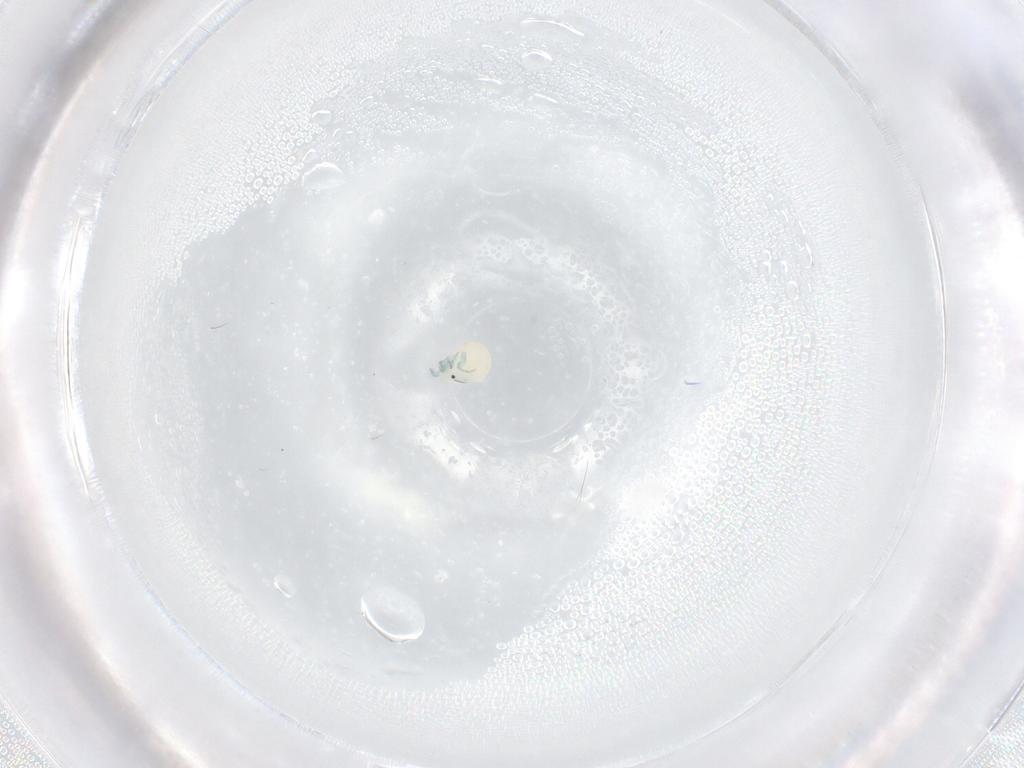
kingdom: Animalia
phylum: Arthropoda
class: Arachnida
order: Trombidiformes
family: Arrenuridae
